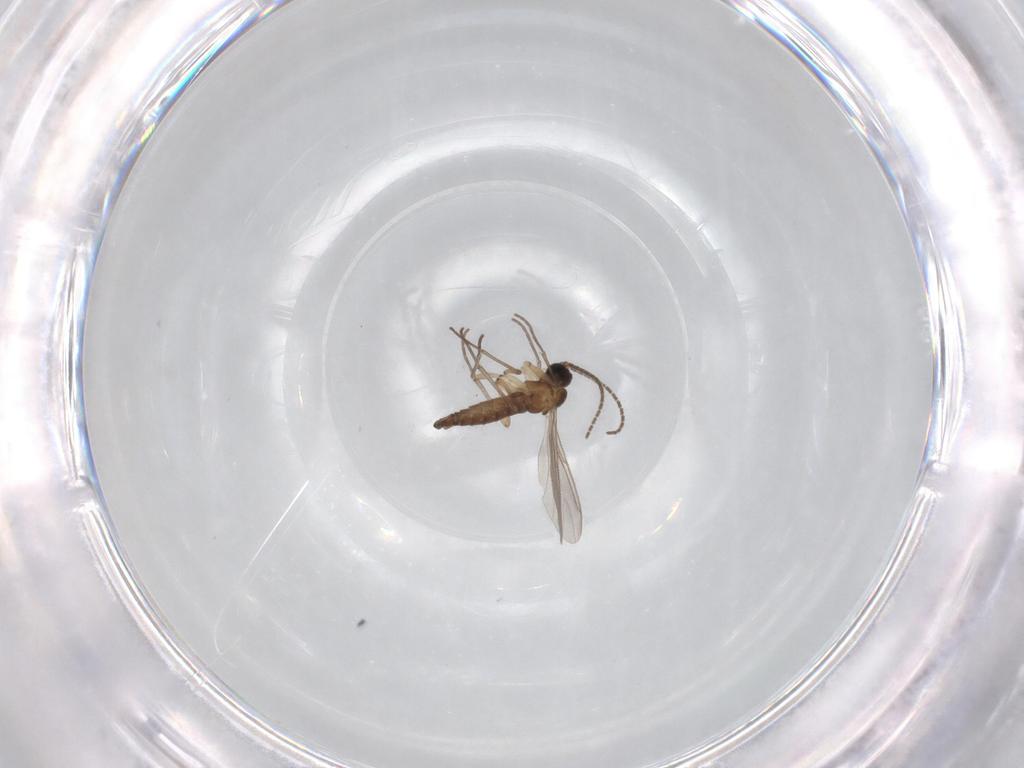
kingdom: Animalia
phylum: Arthropoda
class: Insecta
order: Diptera
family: Sciaridae
